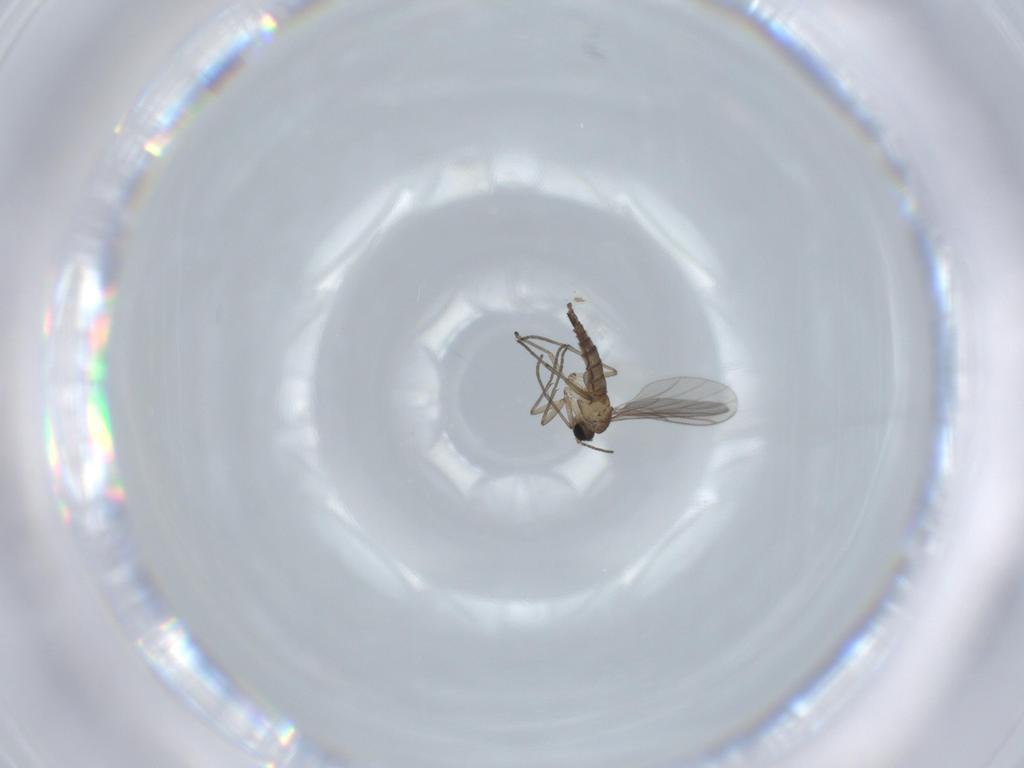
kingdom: Animalia
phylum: Arthropoda
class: Insecta
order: Diptera
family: Sciaridae
